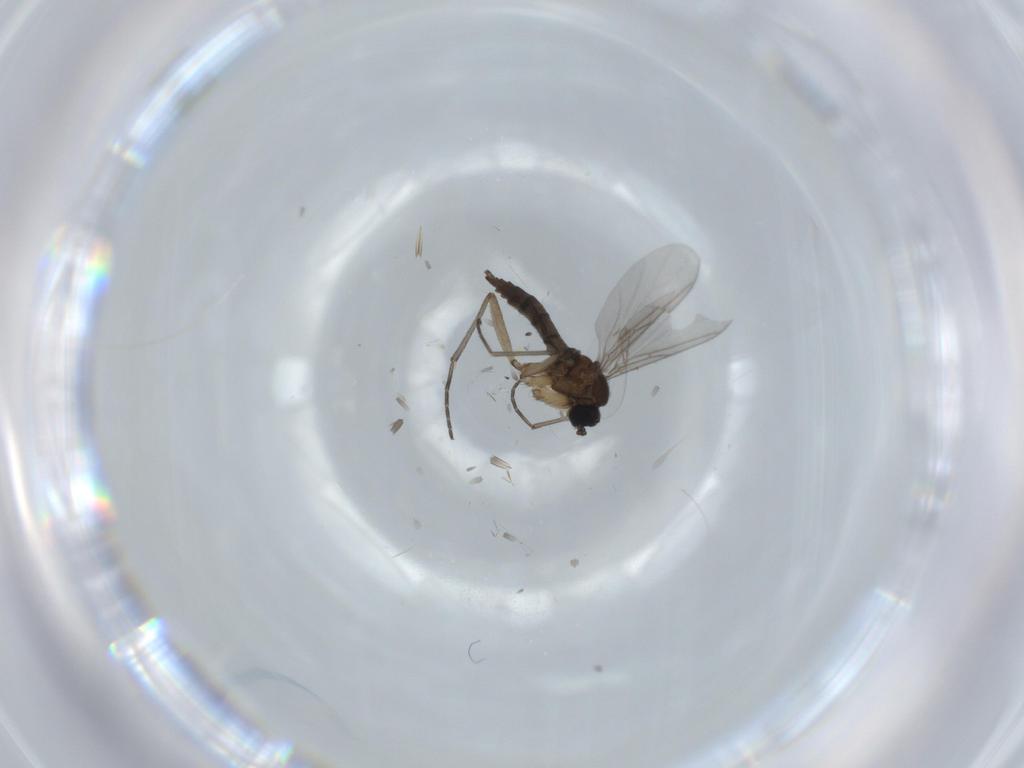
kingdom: Animalia
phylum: Arthropoda
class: Insecta
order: Diptera
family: Phoridae
